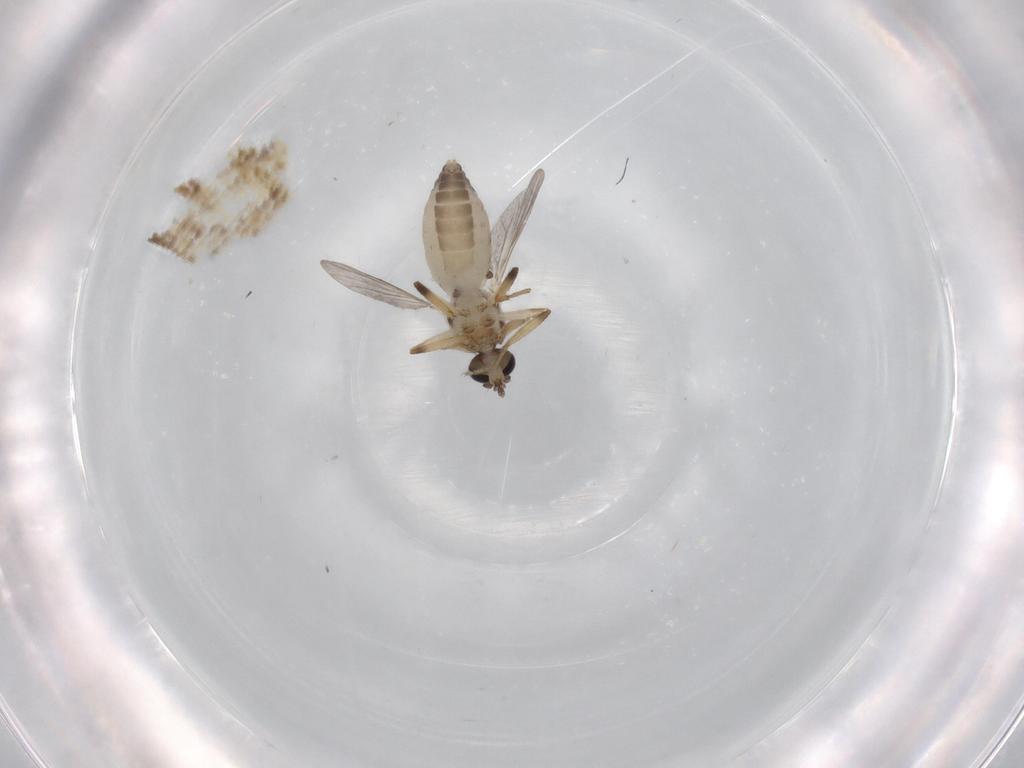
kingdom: Animalia
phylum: Arthropoda
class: Insecta
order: Diptera
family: Ceratopogonidae
